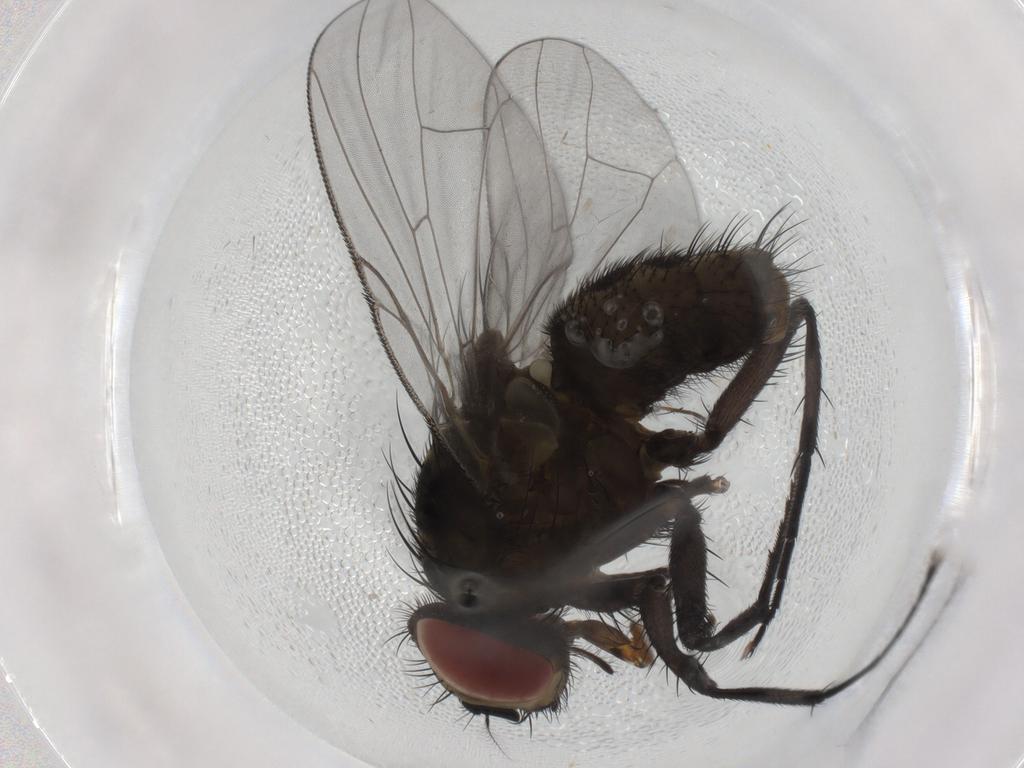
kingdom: Animalia
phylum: Arthropoda
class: Insecta
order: Diptera
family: Muscidae
